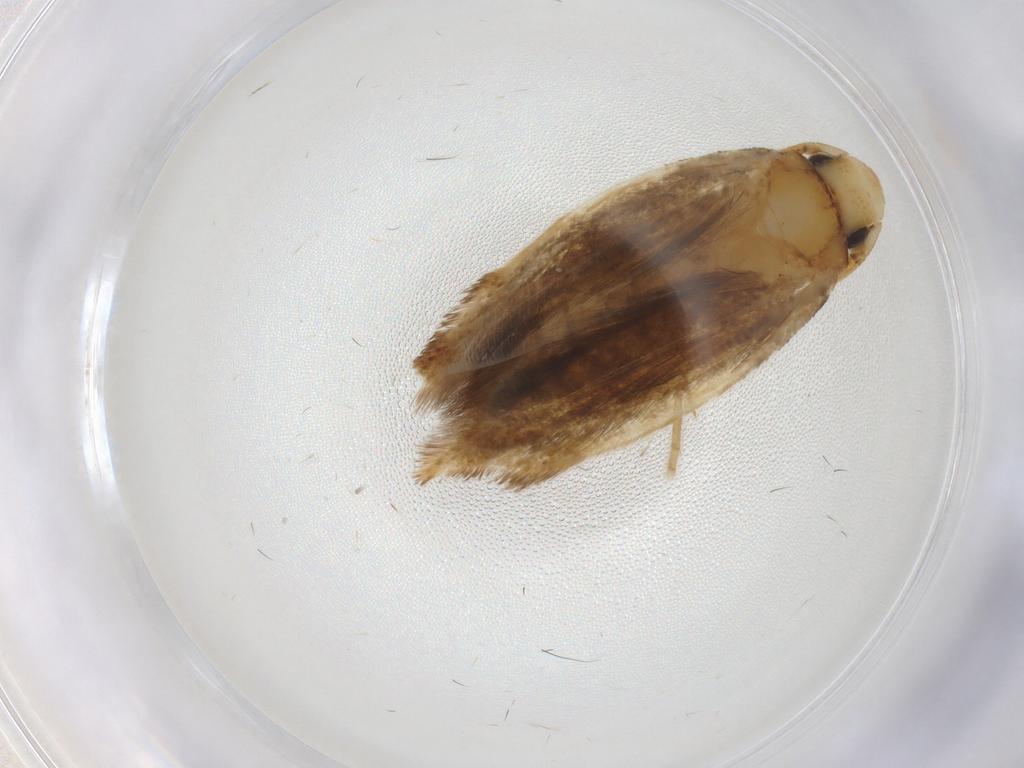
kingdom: Animalia
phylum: Arthropoda
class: Insecta
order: Lepidoptera
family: Tineidae
